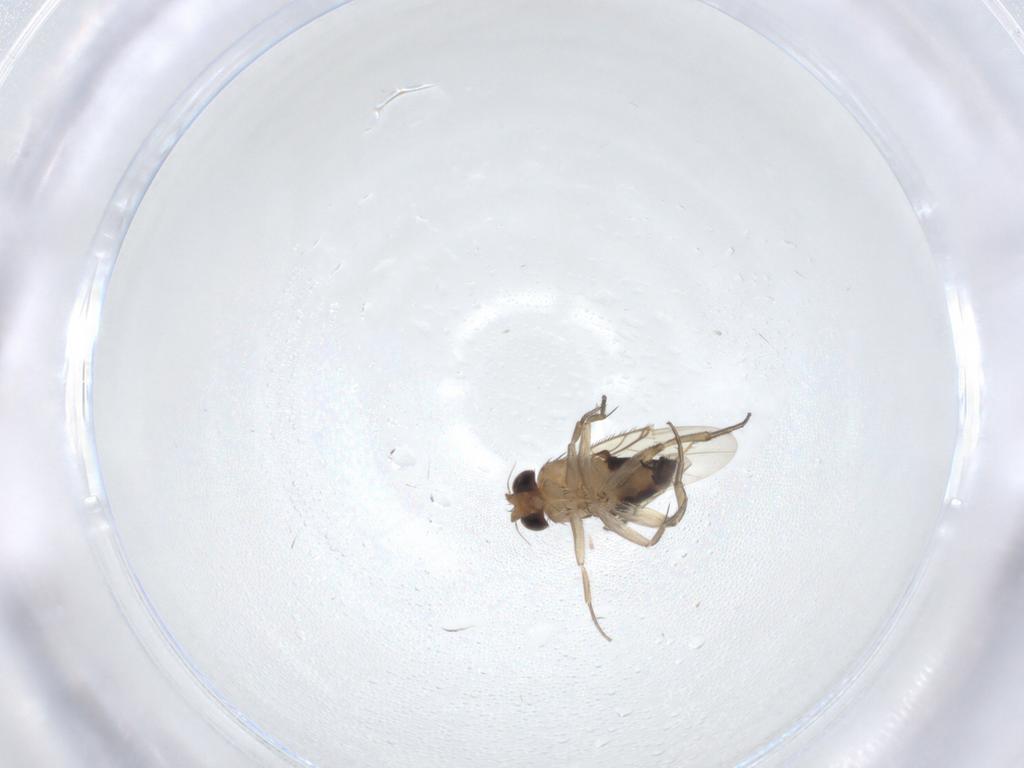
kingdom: Animalia
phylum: Arthropoda
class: Insecta
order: Diptera
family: Phoridae
